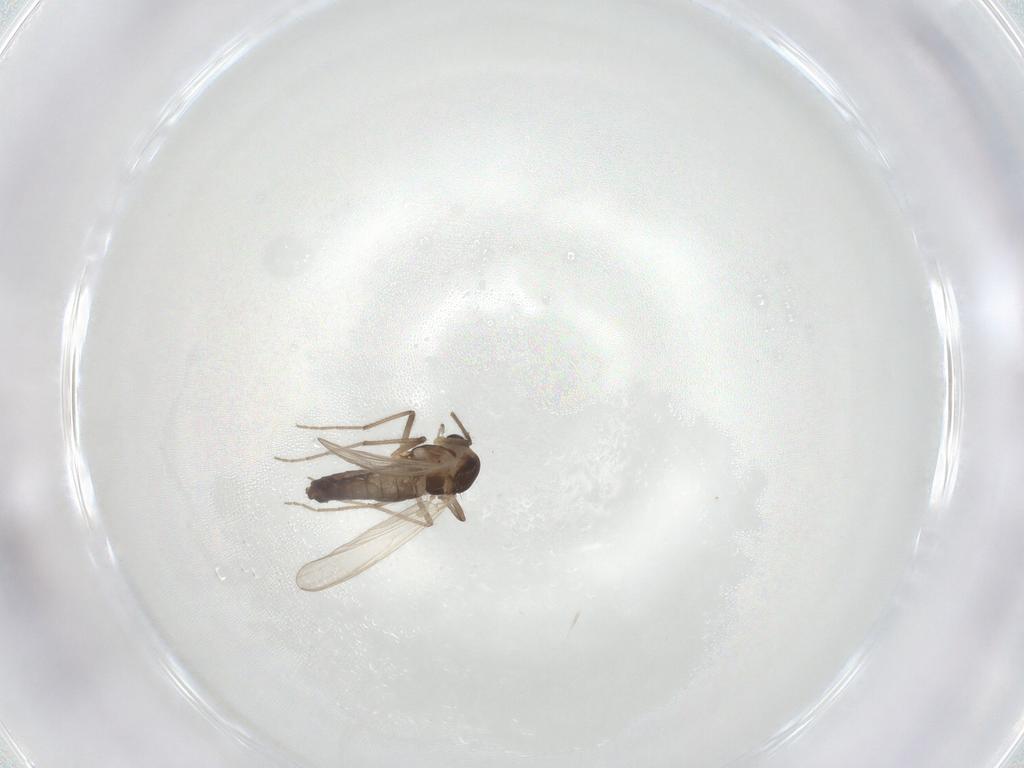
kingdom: Animalia
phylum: Arthropoda
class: Insecta
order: Diptera
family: Chironomidae
